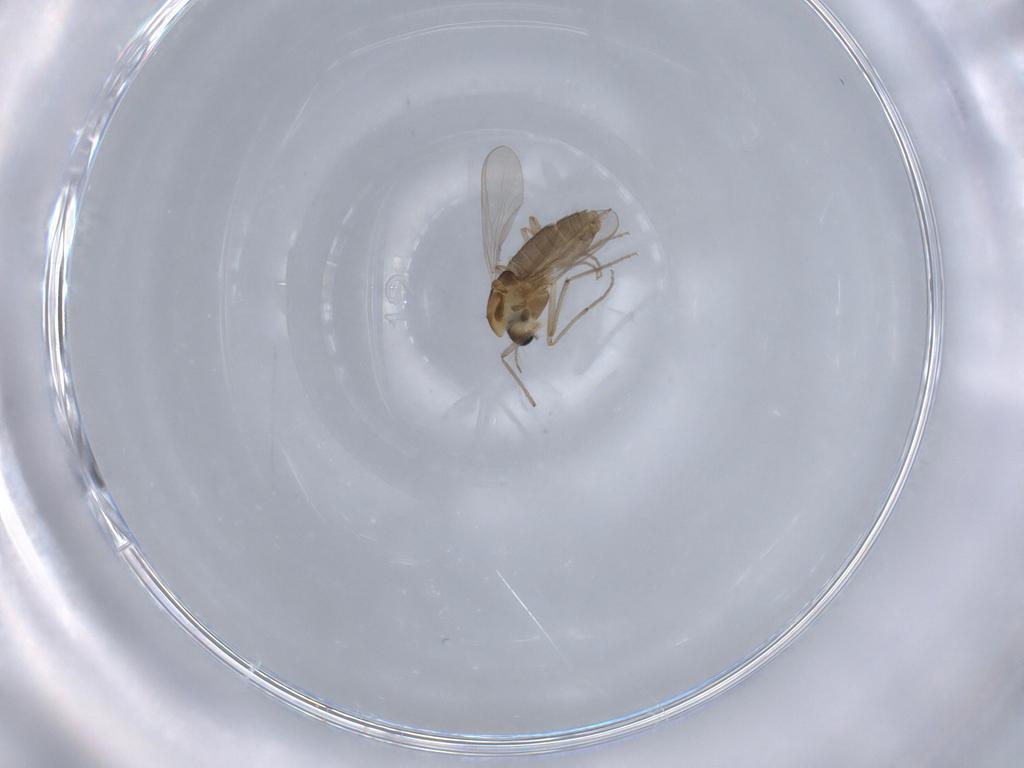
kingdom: Animalia
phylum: Arthropoda
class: Insecta
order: Diptera
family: Chironomidae
